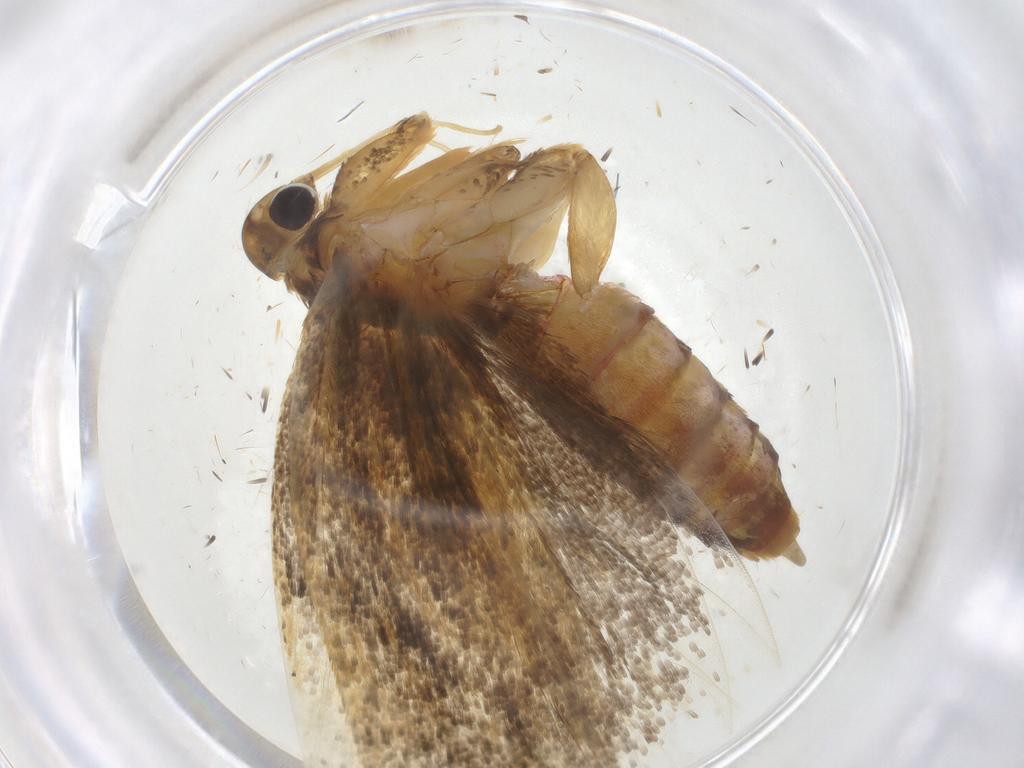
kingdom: Animalia
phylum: Arthropoda
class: Insecta
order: Lepidoptera
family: Lecithoceridae
